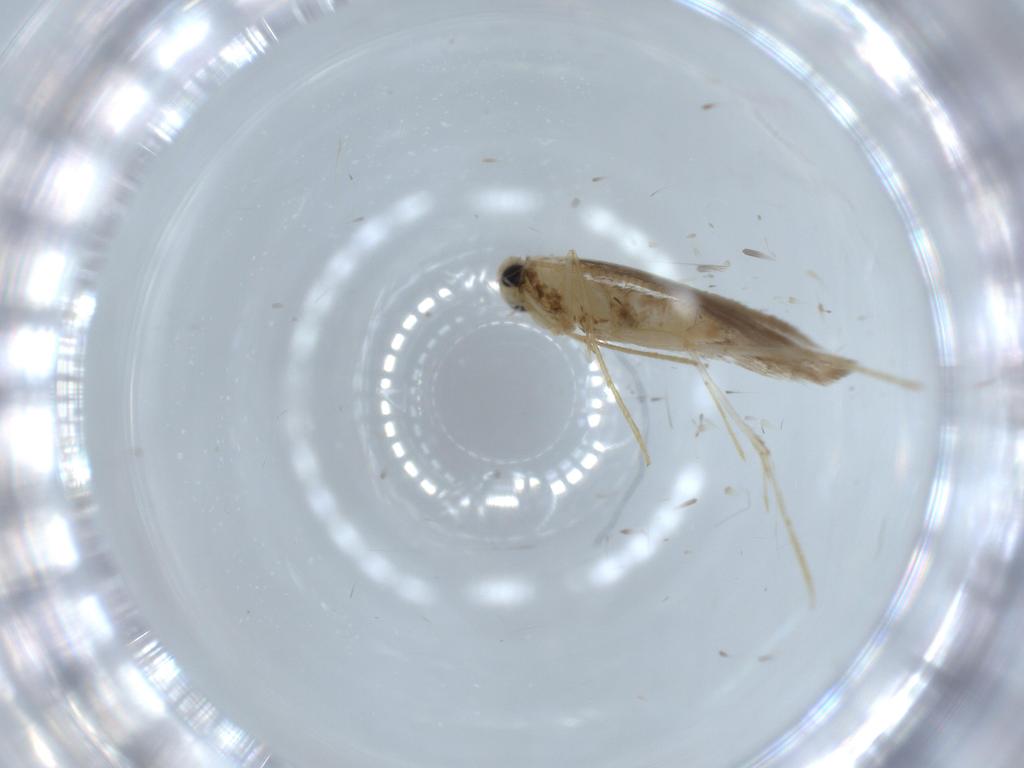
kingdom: Animalia
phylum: Arthropoda
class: Insecta
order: Lepidoptera
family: Tineidae
